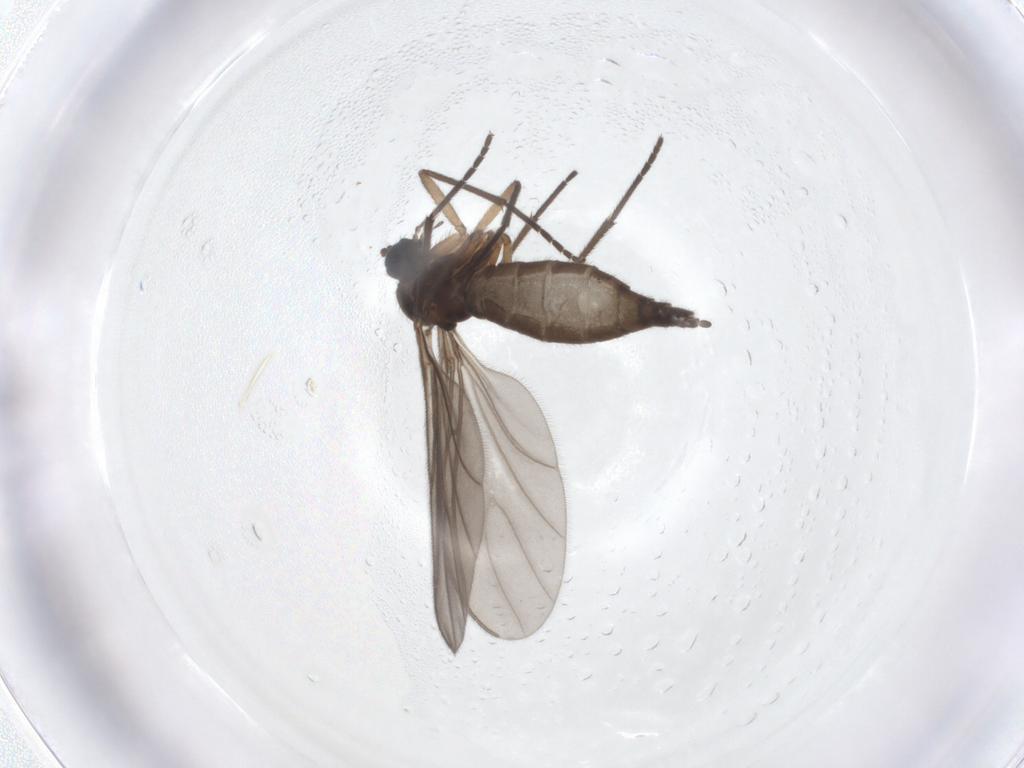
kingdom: Animalia
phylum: Arthropoda
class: Insecta
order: Diptera
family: Sciaridae
